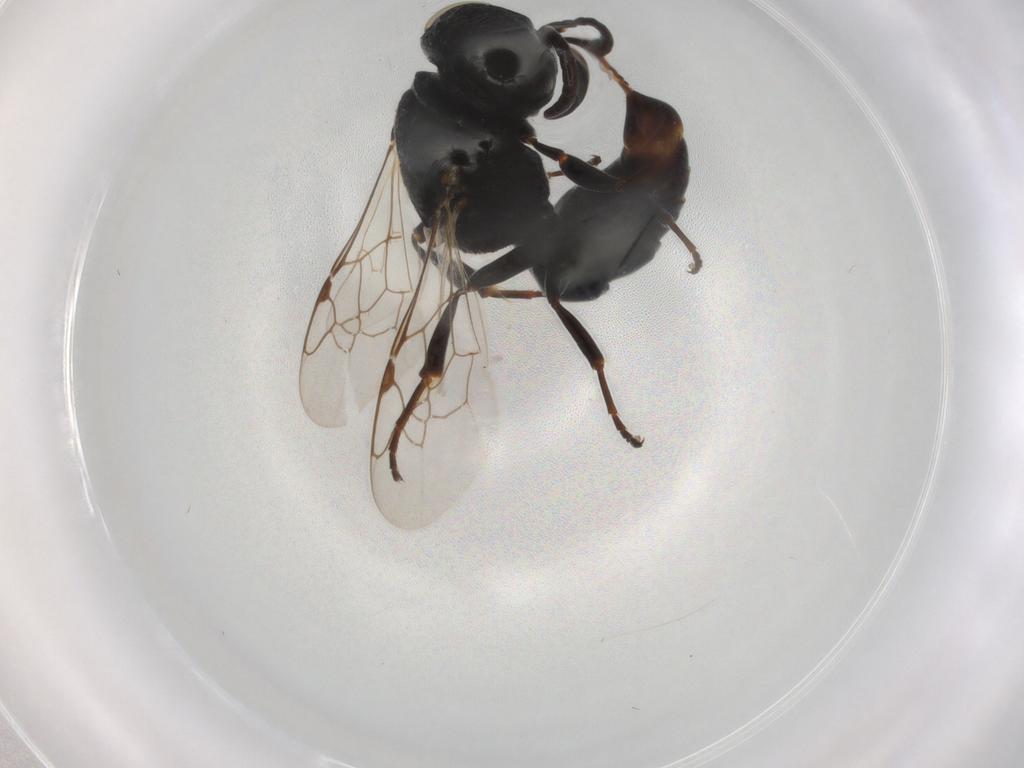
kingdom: Animalia
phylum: Arthropoda
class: Insecta
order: Hymenoptera
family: Crabronidae
